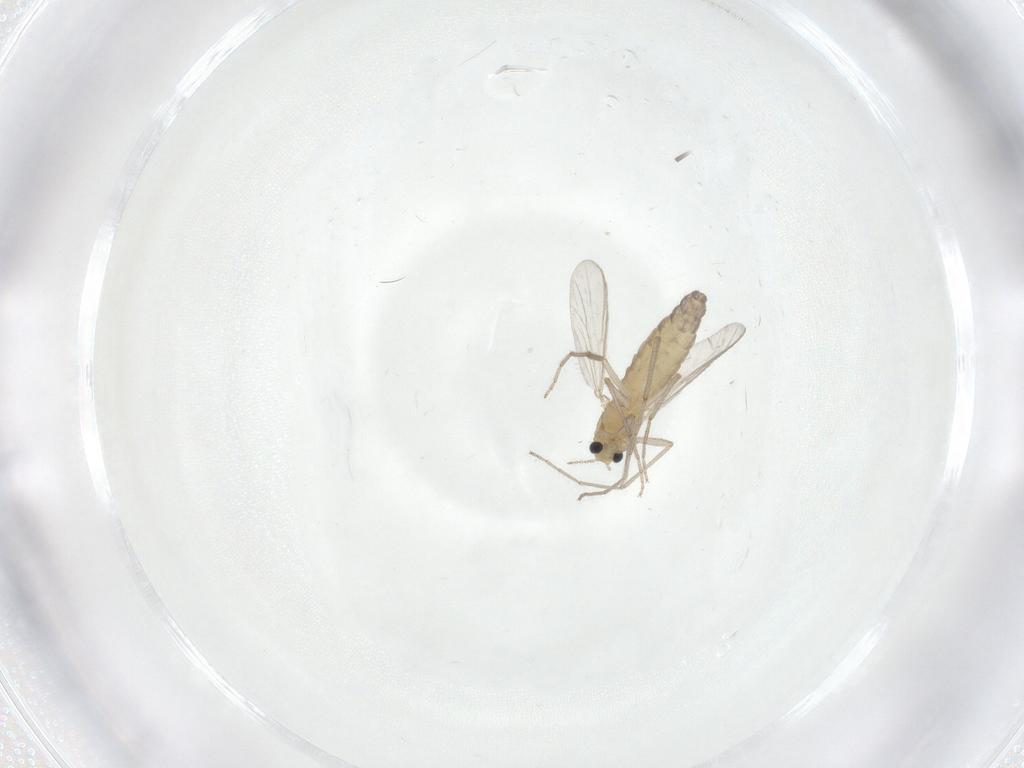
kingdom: Animalia
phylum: Arthropoda
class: Insecta
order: Diptera
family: Chironomidae
